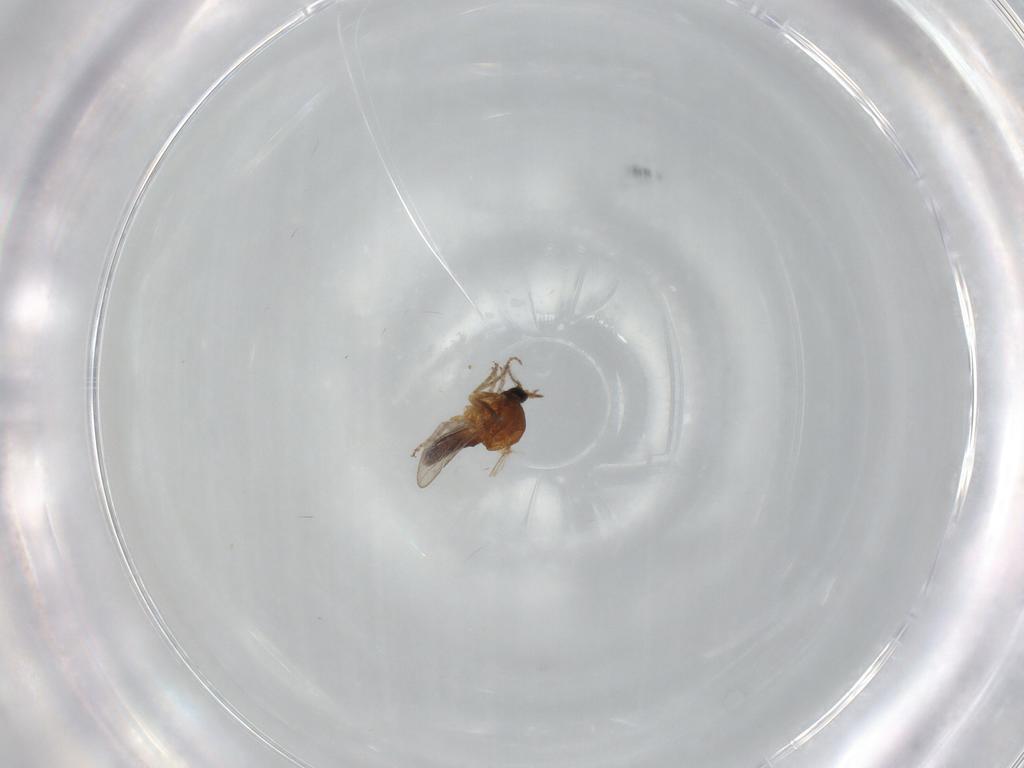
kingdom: Animalia
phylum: Arthropoda
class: Insecta
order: Diptera
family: Ceratopogonidae
